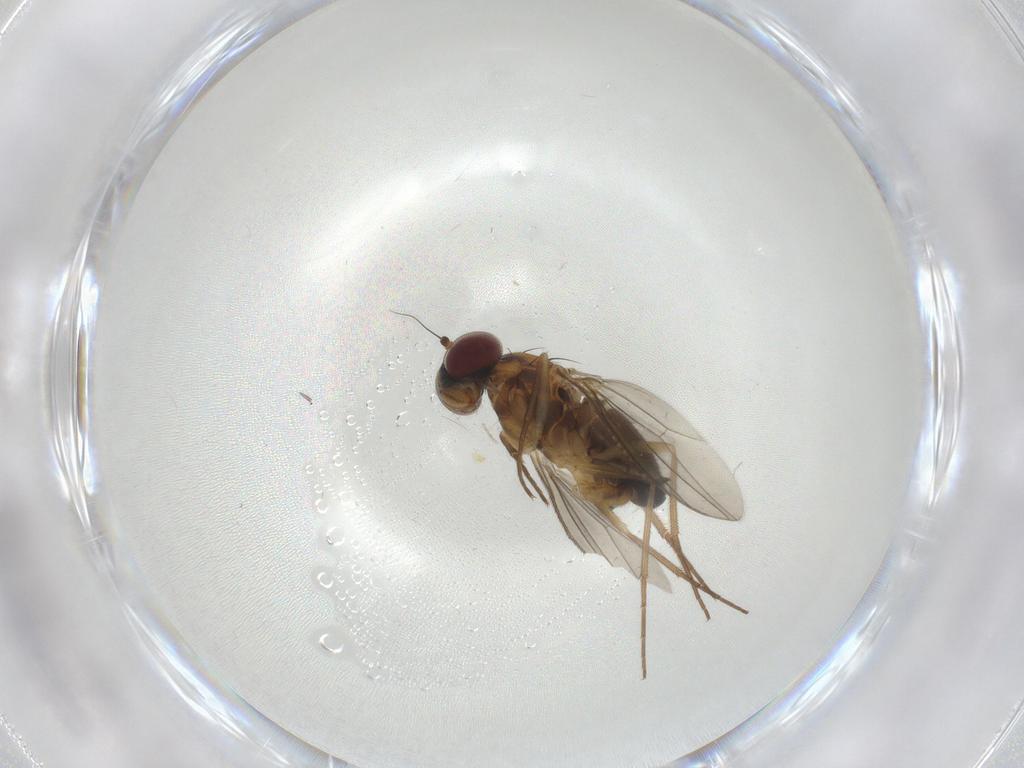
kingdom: Animalia
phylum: Arthropoda
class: Insecta
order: Diptera
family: Dolichopodidae
